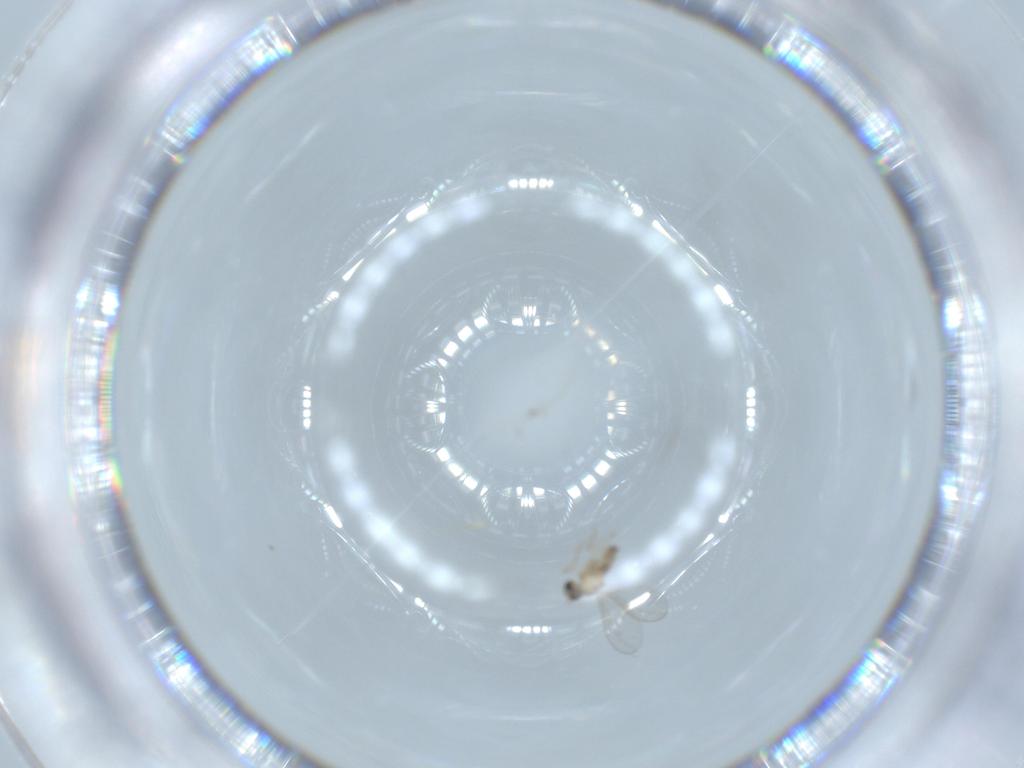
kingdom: Animalia
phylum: Arthropoda
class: Insecta
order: Diptera
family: Cecidomyiidae
